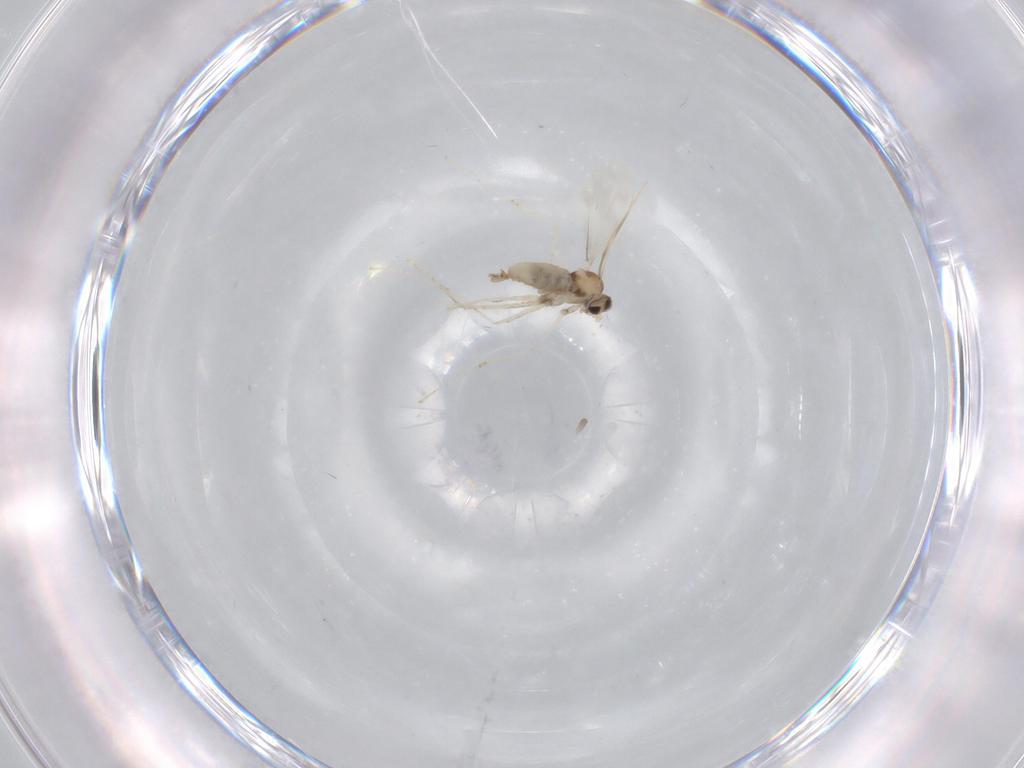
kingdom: Animalia
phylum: Arthropoda
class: Insecta
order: Diptera
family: Cecidomyiidae
